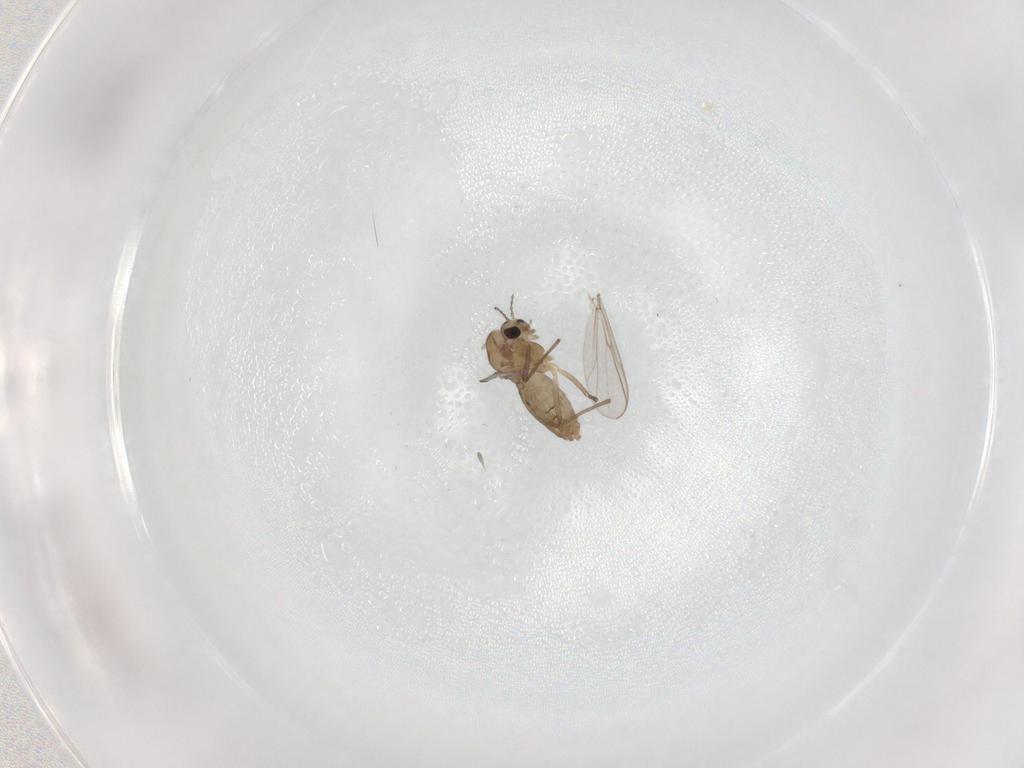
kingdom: Animalia
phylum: Arthropoda
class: Insecta
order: Diptera
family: Chironomidae
